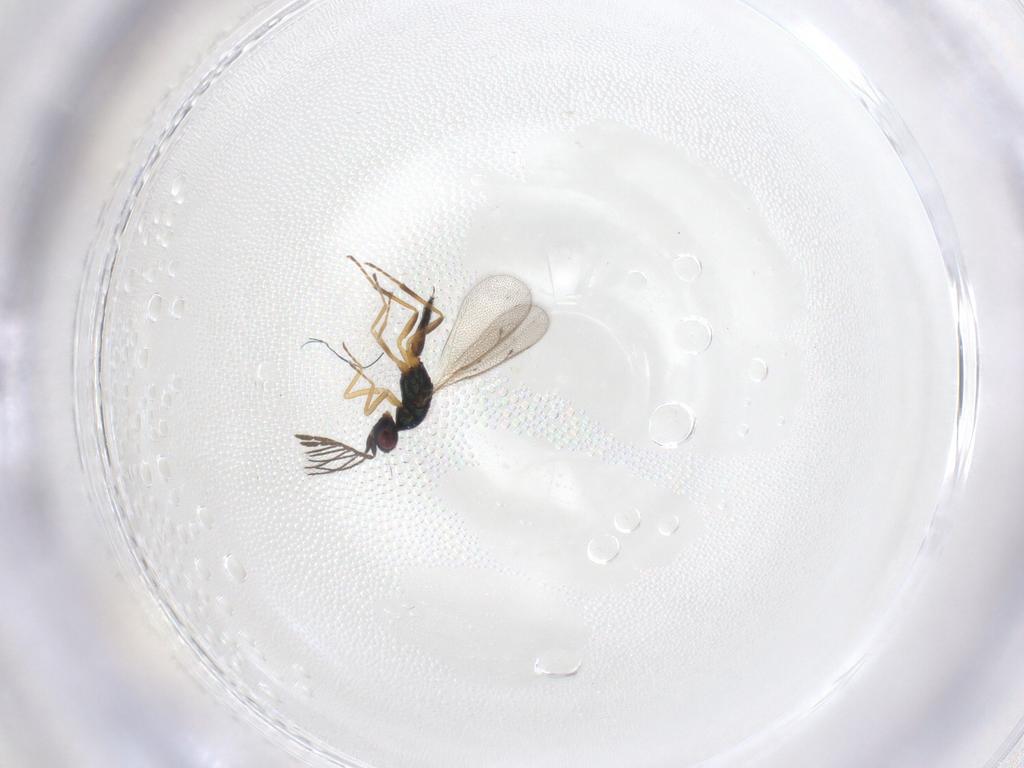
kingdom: Animalia
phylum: Arthropoda
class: Insecta
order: Hymenoptera
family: Eulophidae
